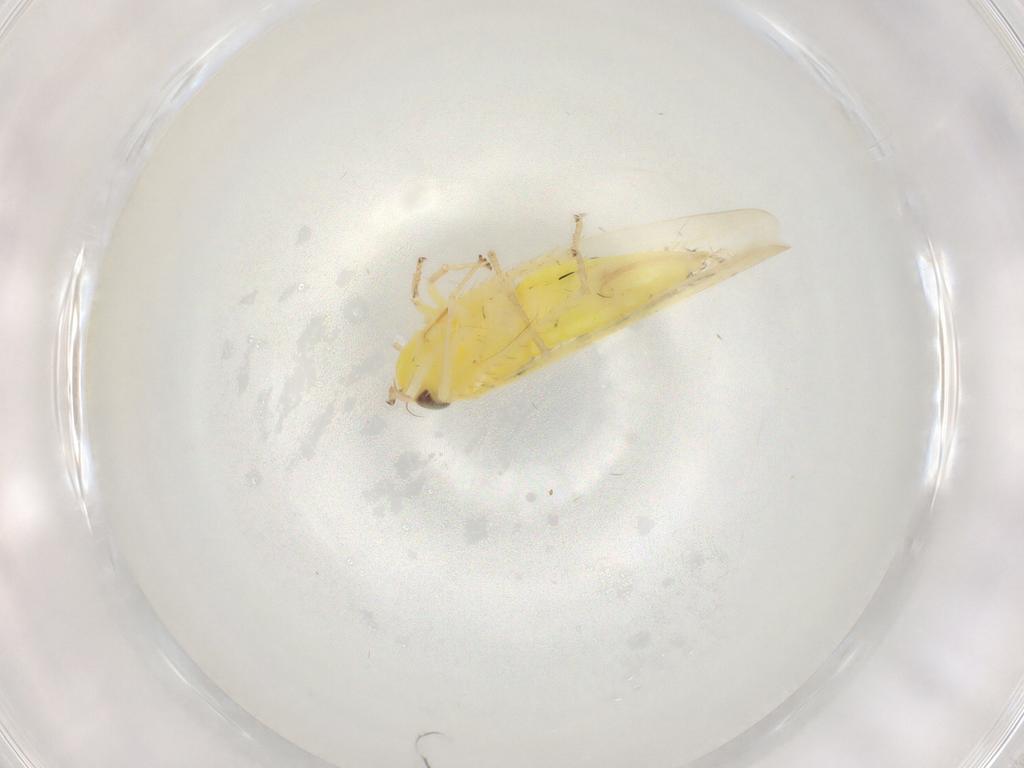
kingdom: Animalia
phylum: Arthropoda
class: Insecta
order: Hemiptera
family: Cicadellidae
